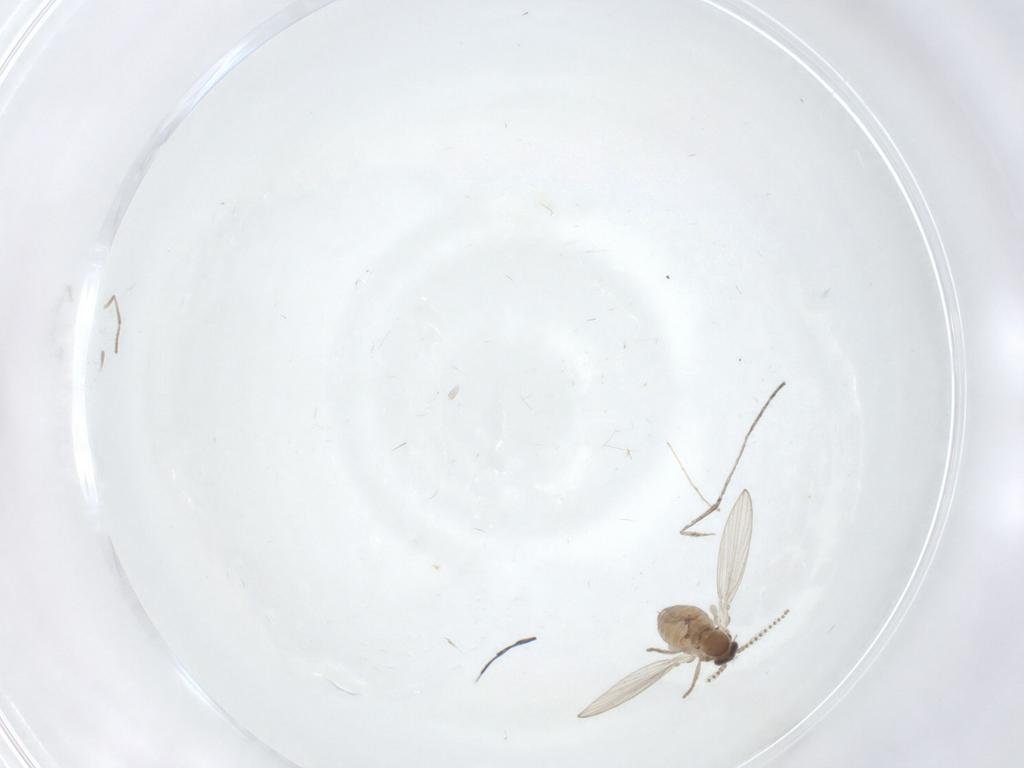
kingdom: Animalia
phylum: Arthropoda
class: Insecta
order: Diptera
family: Psychodidae
